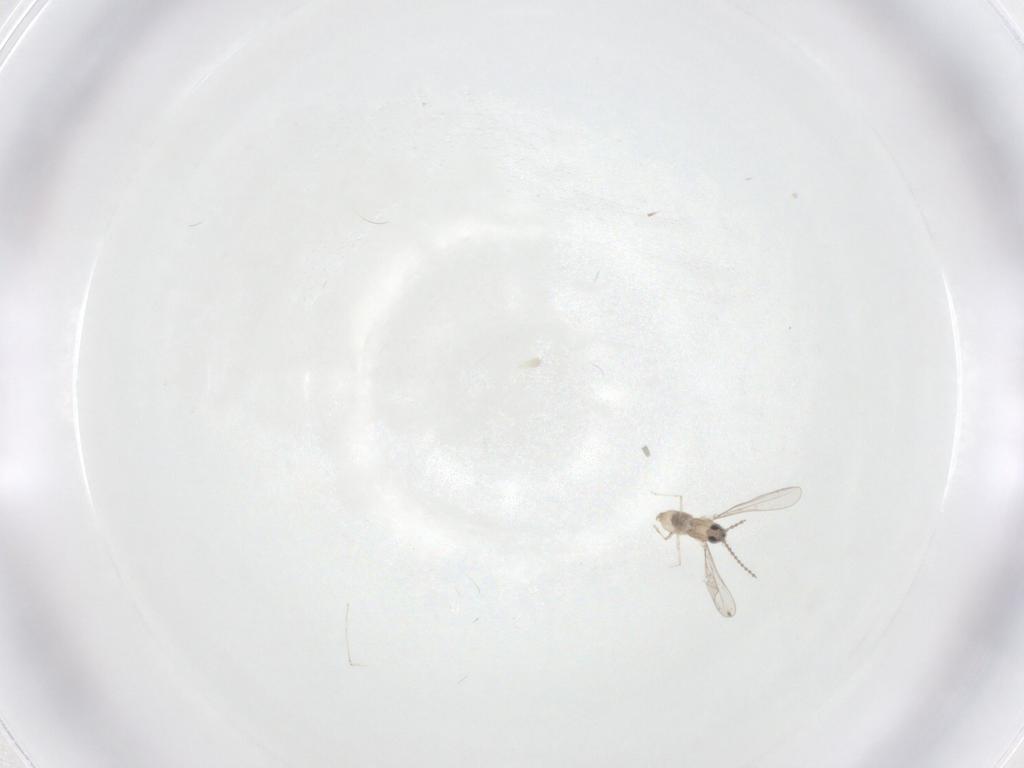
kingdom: Animalia
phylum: Arthropoda
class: Insecta
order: Diptera
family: Cecidomyiidae
